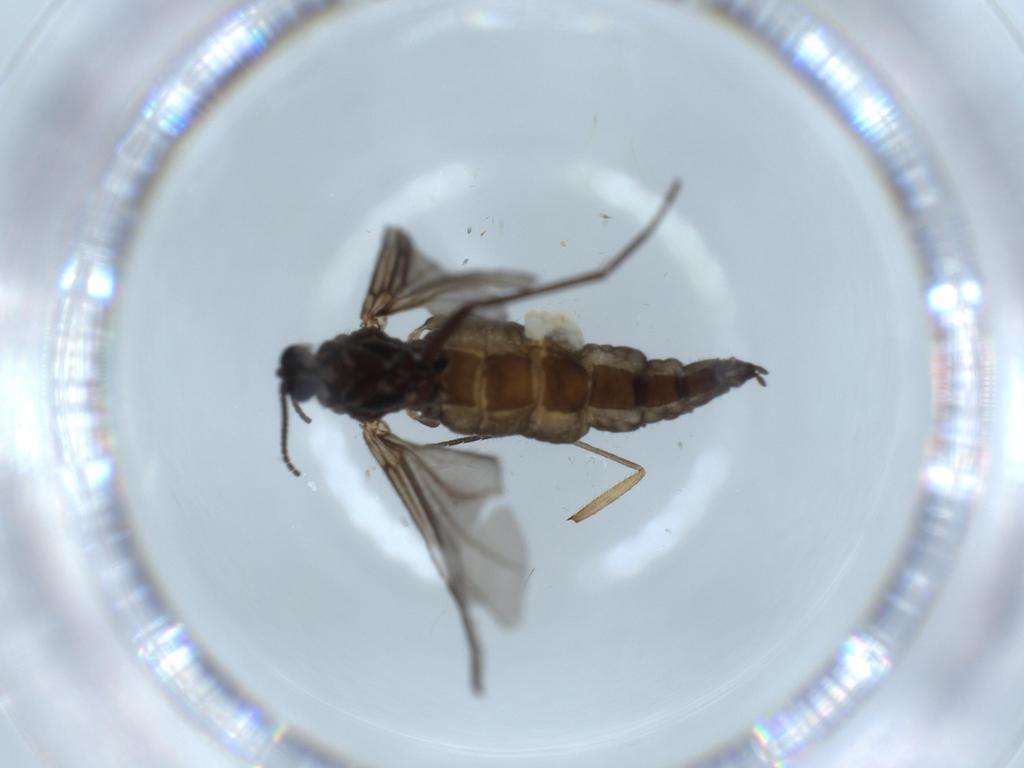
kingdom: Animalia
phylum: Arthropoda
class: Insecta
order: Diptera
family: Sciaridae
